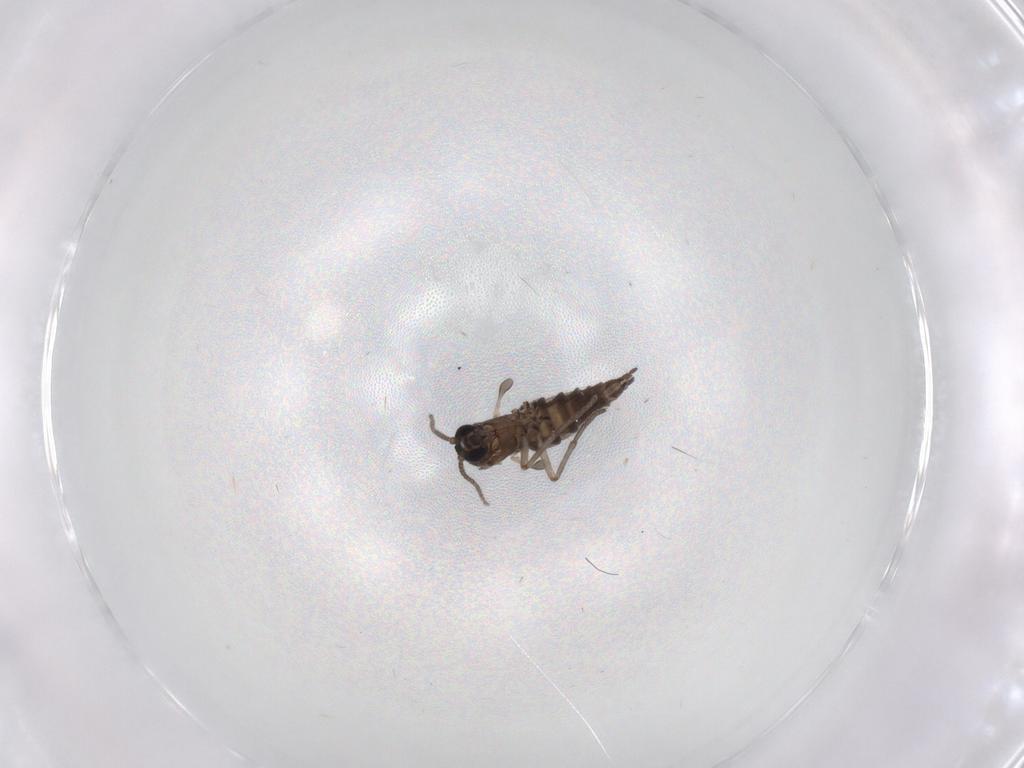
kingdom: Animalia
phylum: Arthropoda
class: Insecta
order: Diptera
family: Sciaridae
